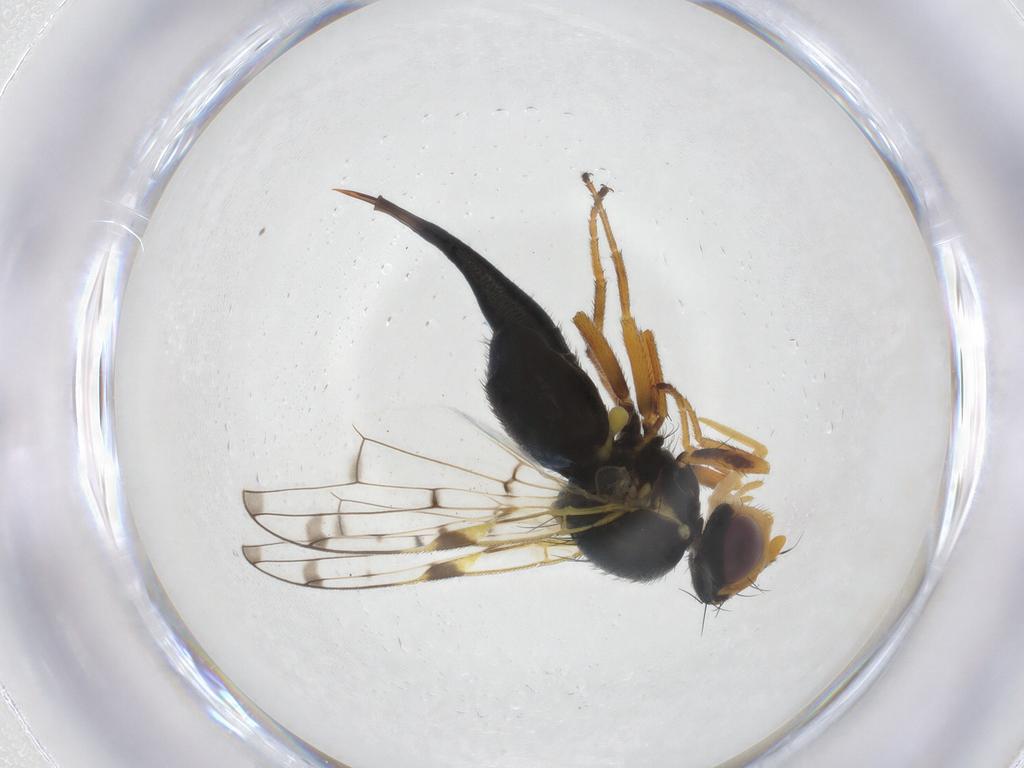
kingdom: Animalia
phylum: Arthropoda
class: Insecta
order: Diptera
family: Tephritidae
